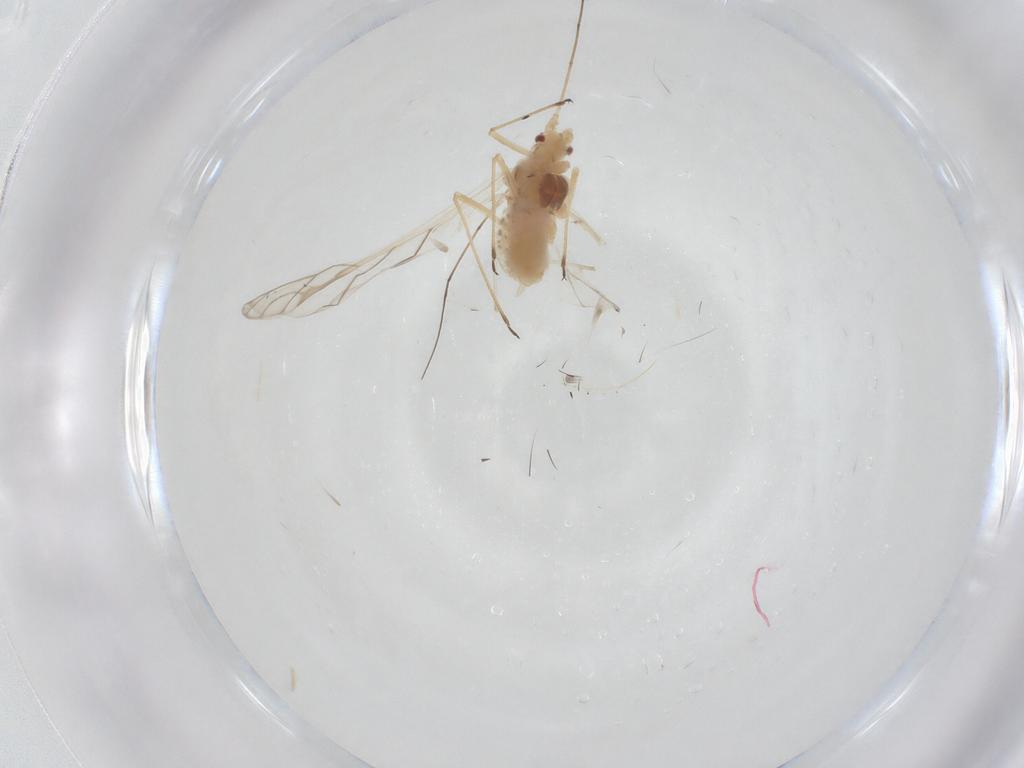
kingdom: Animalia
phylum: Arthropoda
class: Insecta
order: Hemiptera
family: Aphididae
